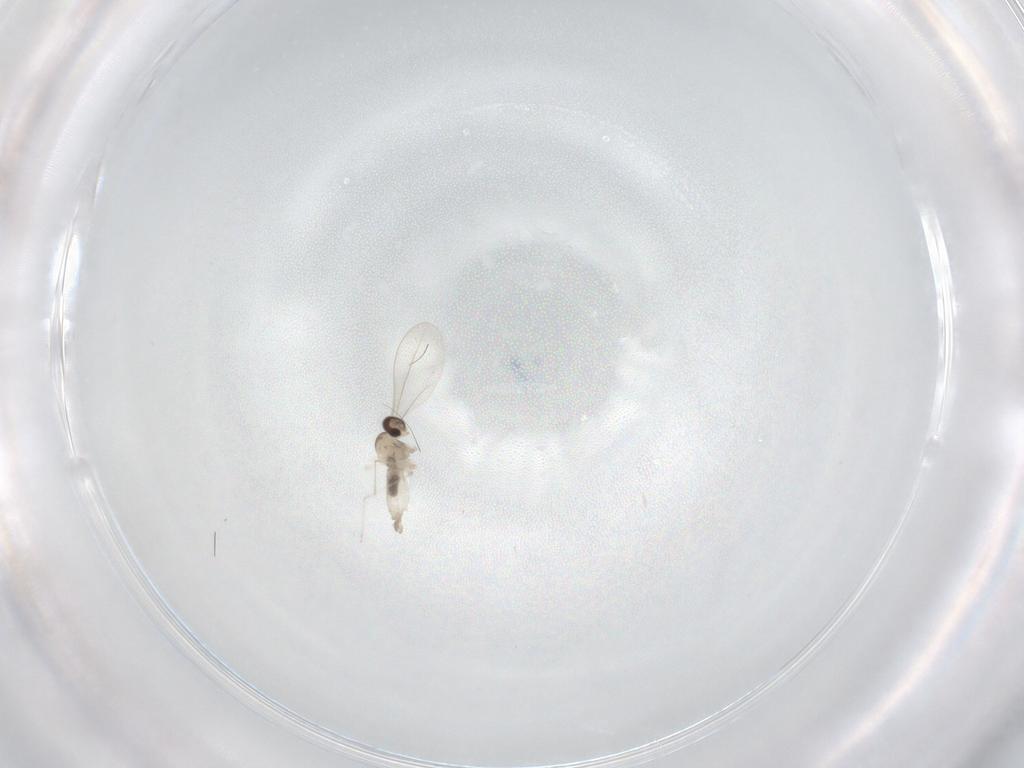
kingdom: Animalia
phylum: Arthropoda
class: Insecta
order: Diptera
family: Cecidomyiidae
